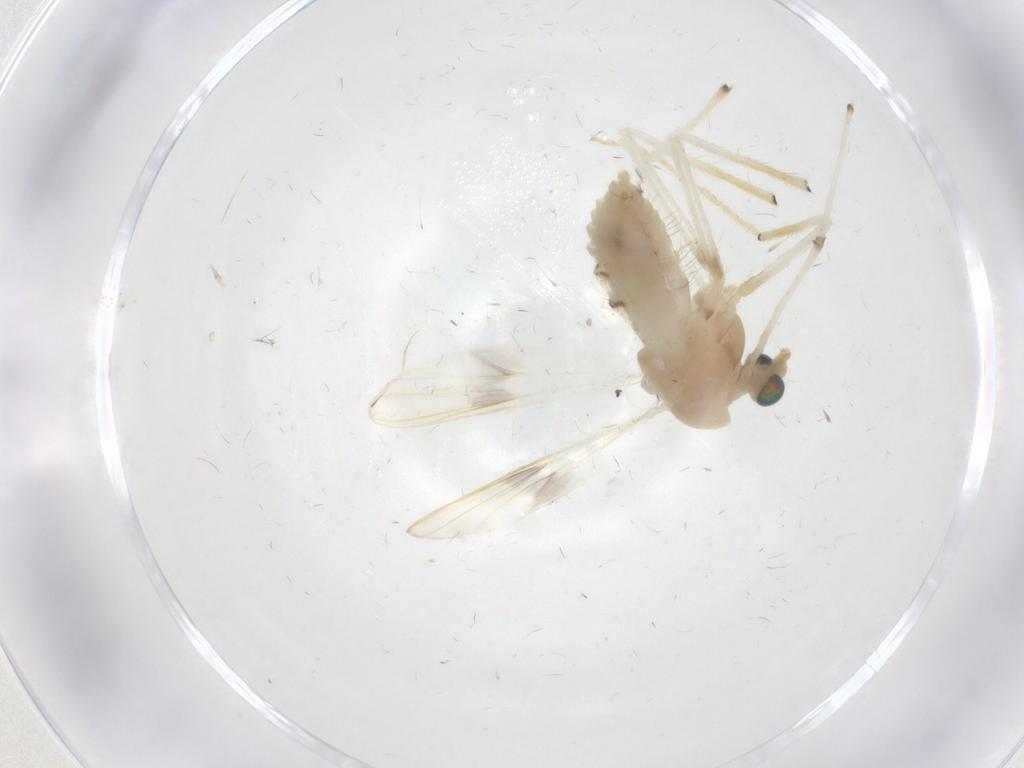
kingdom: Animalia
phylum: Arthropoda
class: Insecta
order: Diptera
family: Chironomidae
